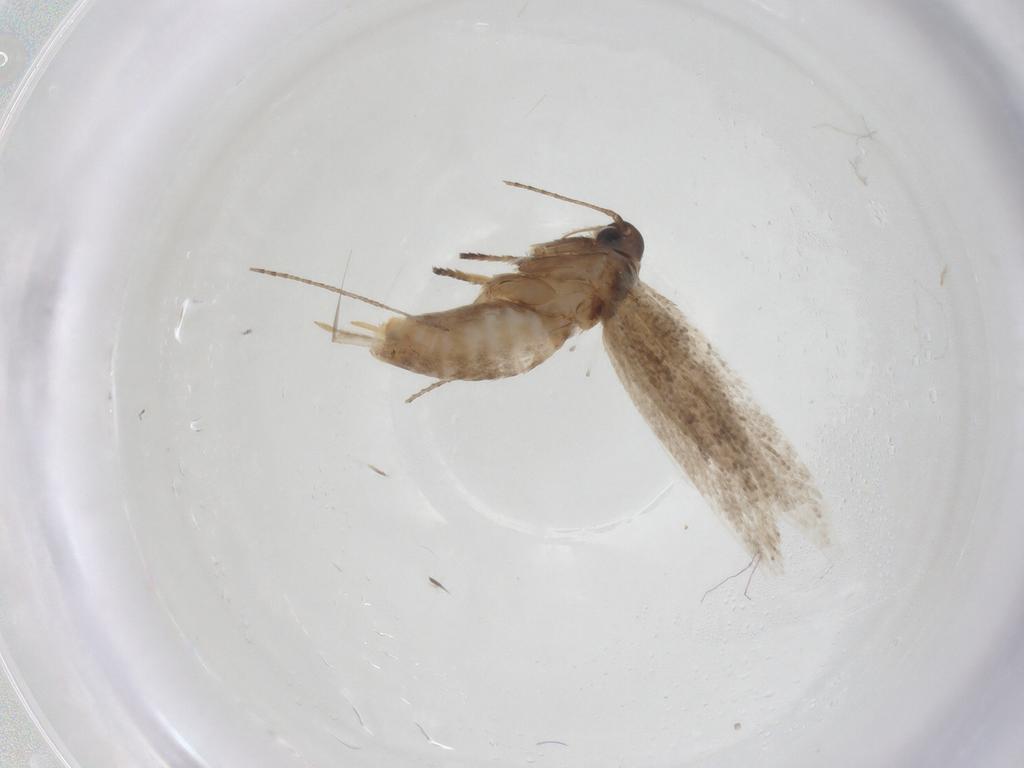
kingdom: Animalia
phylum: Arthropoda
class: Insecta
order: Lepidoptera
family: Gelechiidae
